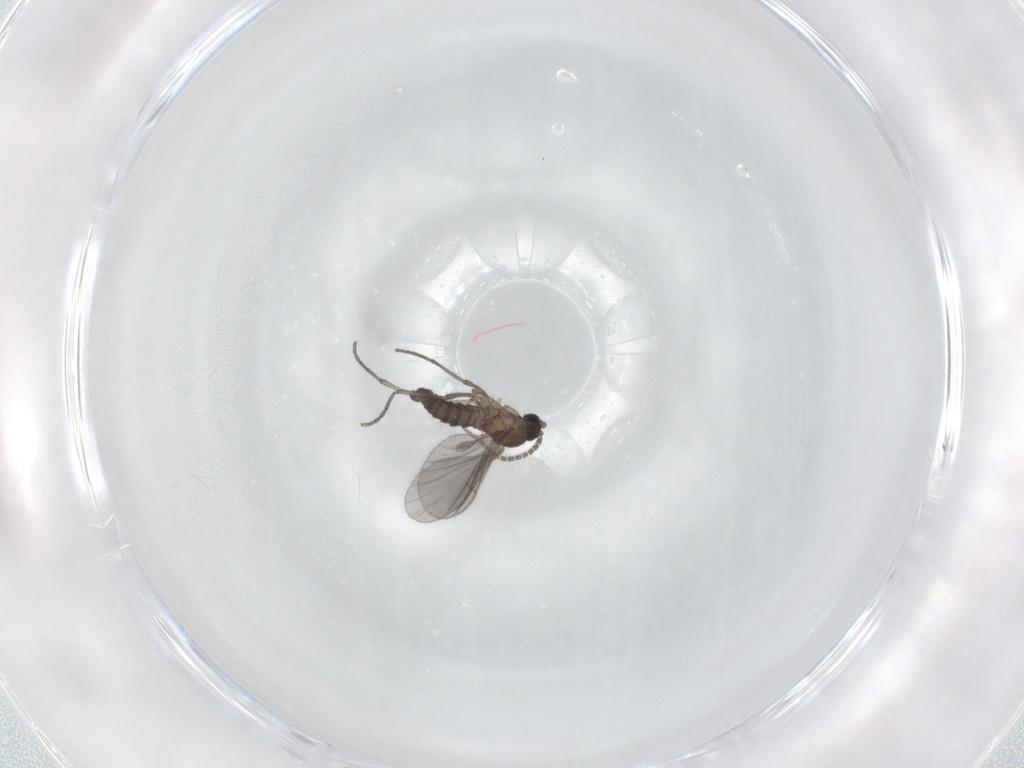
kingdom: Animalia
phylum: Arthropoda
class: Insecta
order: Diptera
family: Sciaridae
